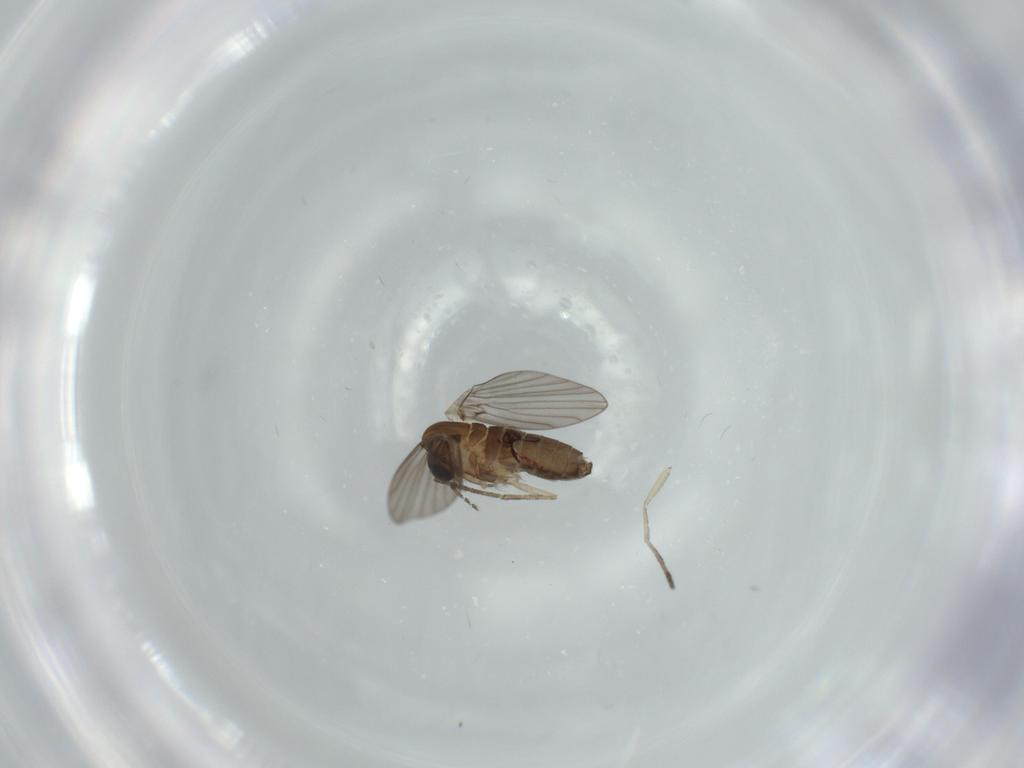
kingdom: Animalia
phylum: Arthropoda
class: Insecta
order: Diptera
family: Psychodidae
